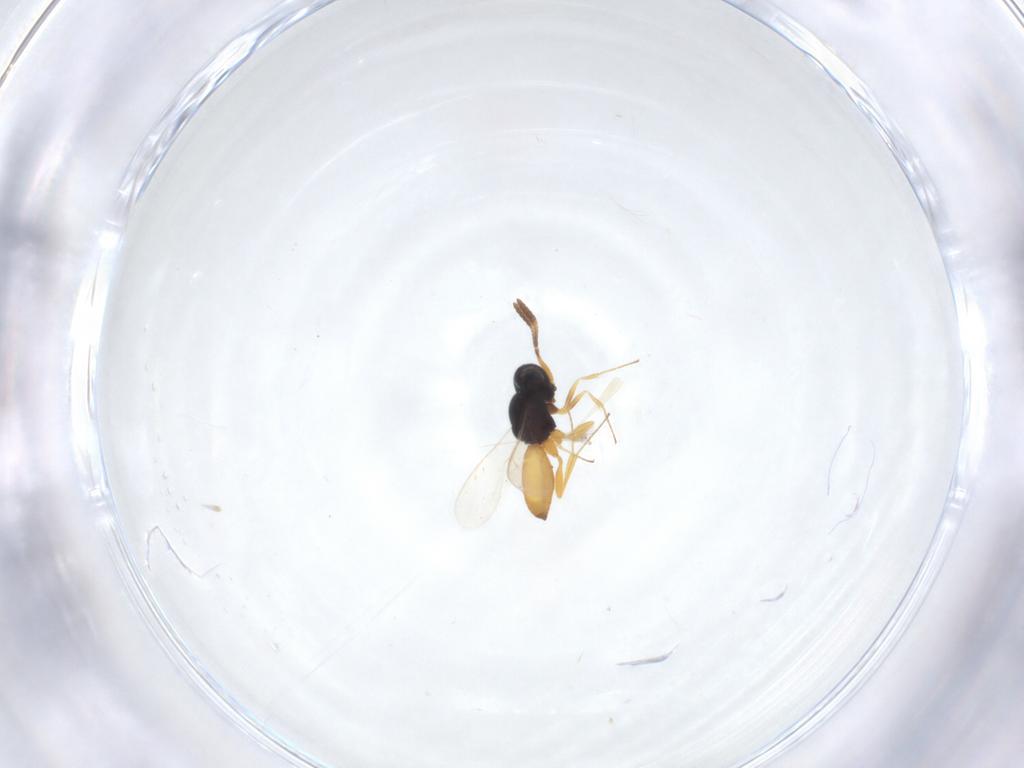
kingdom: Animalia
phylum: Arthropoda
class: Insecta
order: Hymenoptera
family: Scelionidae
